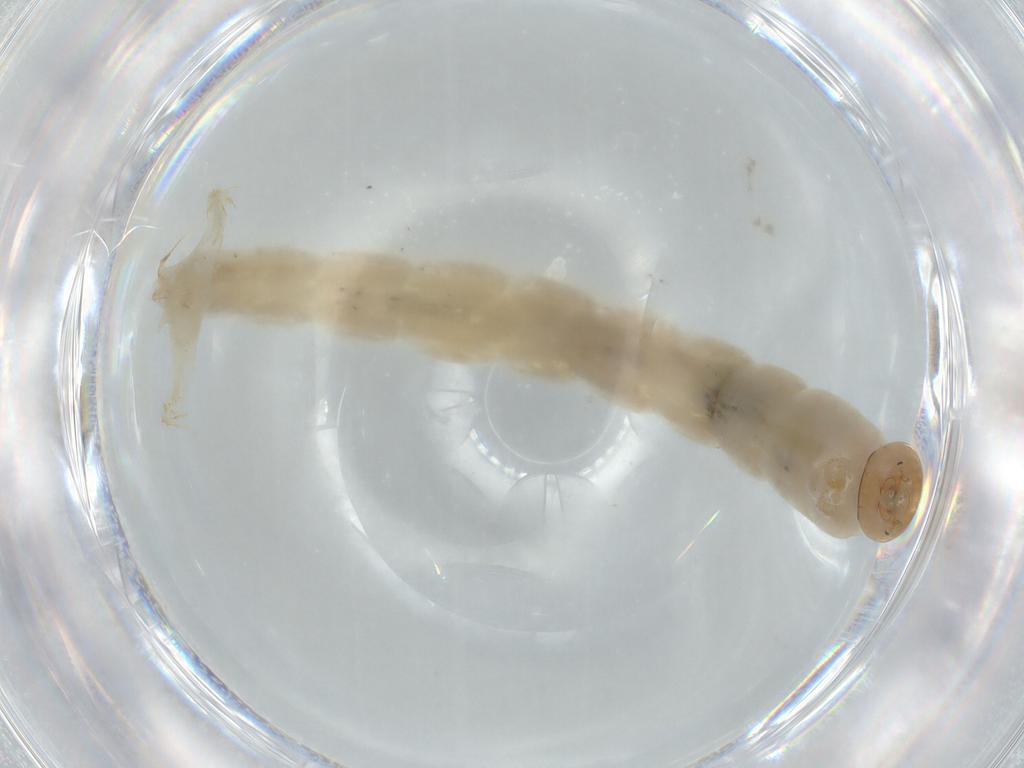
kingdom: Animalia
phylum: Arthropoda
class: Insecta
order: Diptera
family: Chironomidae
